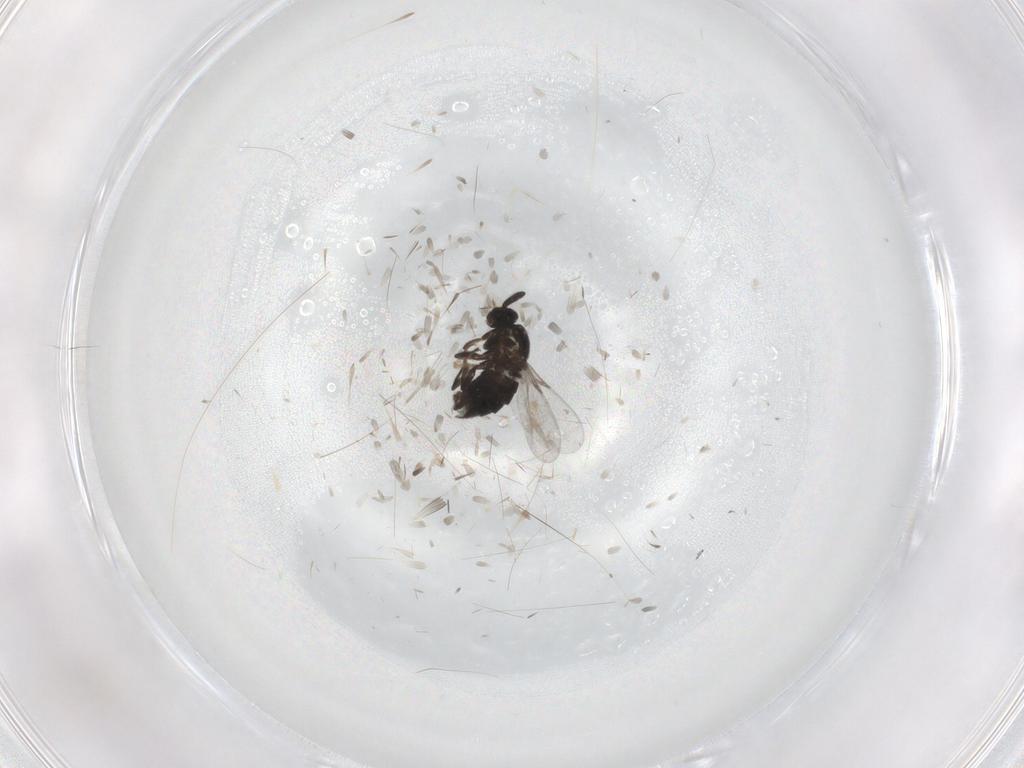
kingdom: Animalia
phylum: Arthropoda
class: Insecta
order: Diptera
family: Scatopsidae
